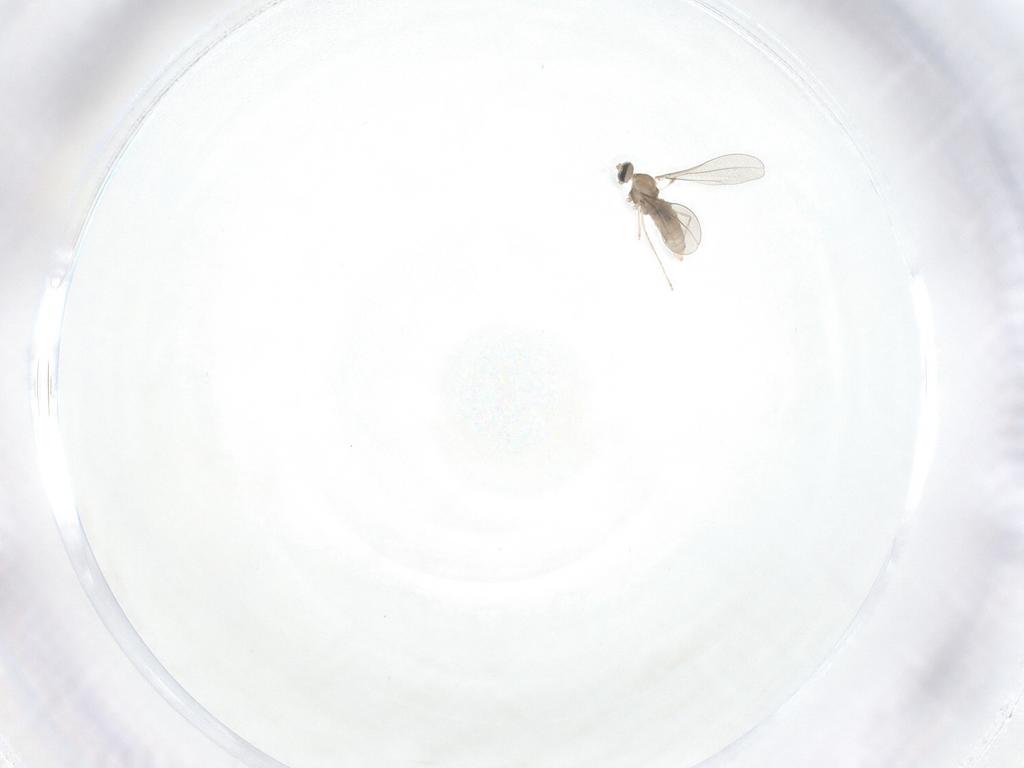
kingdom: Animalia
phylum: Arthropoda
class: Insecta
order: Diptera
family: Cecidomyiidae
